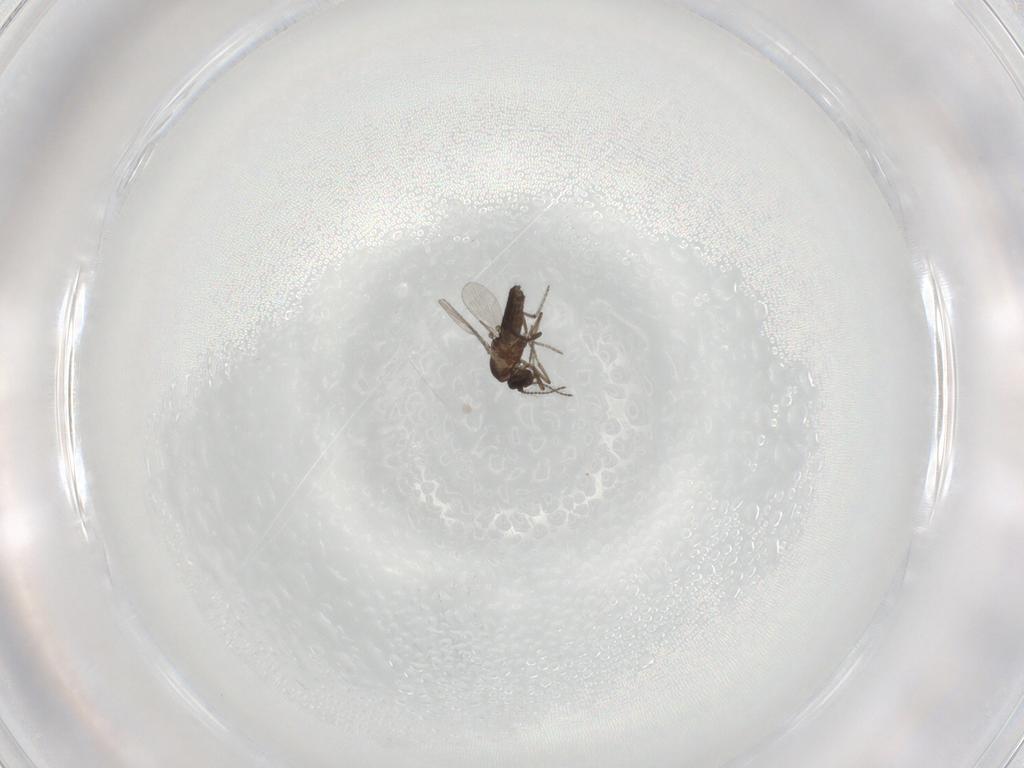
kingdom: Animalia
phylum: Arthropoda
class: Insecta
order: Diptera
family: Ceratopogonidae
